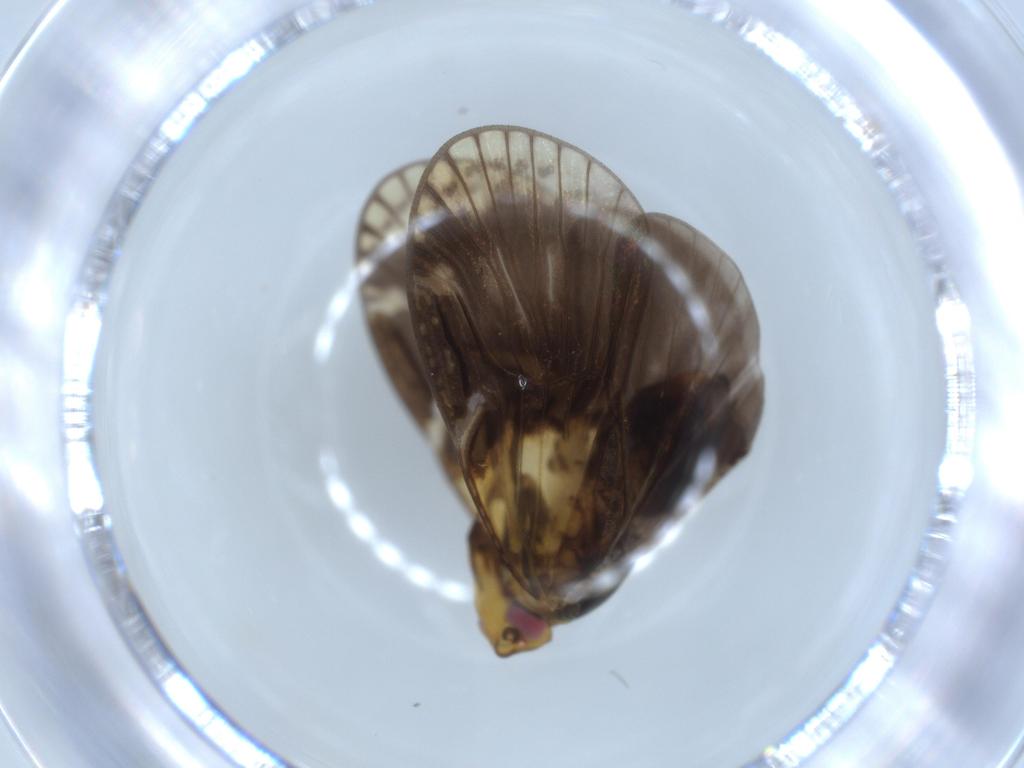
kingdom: Animalia
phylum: Arthropoda
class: Insecta
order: Hemiptera
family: Cixiidae
